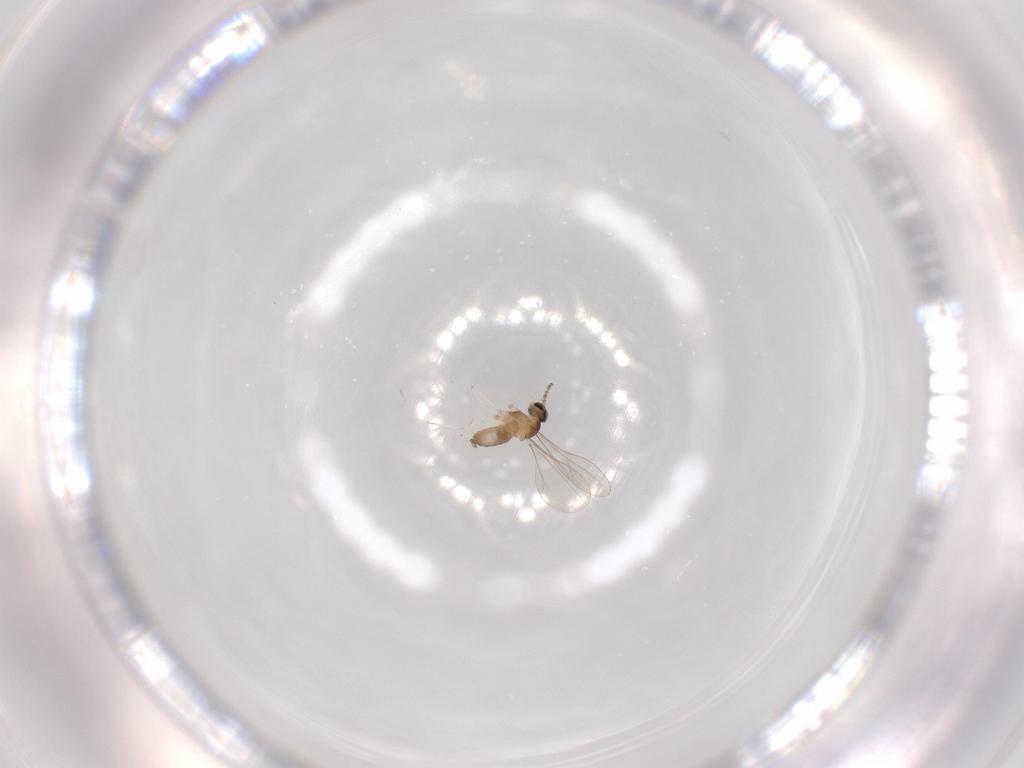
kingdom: Animalia
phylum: Arthropoda
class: Insecta
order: Diptera
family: Cecidomyiidae
